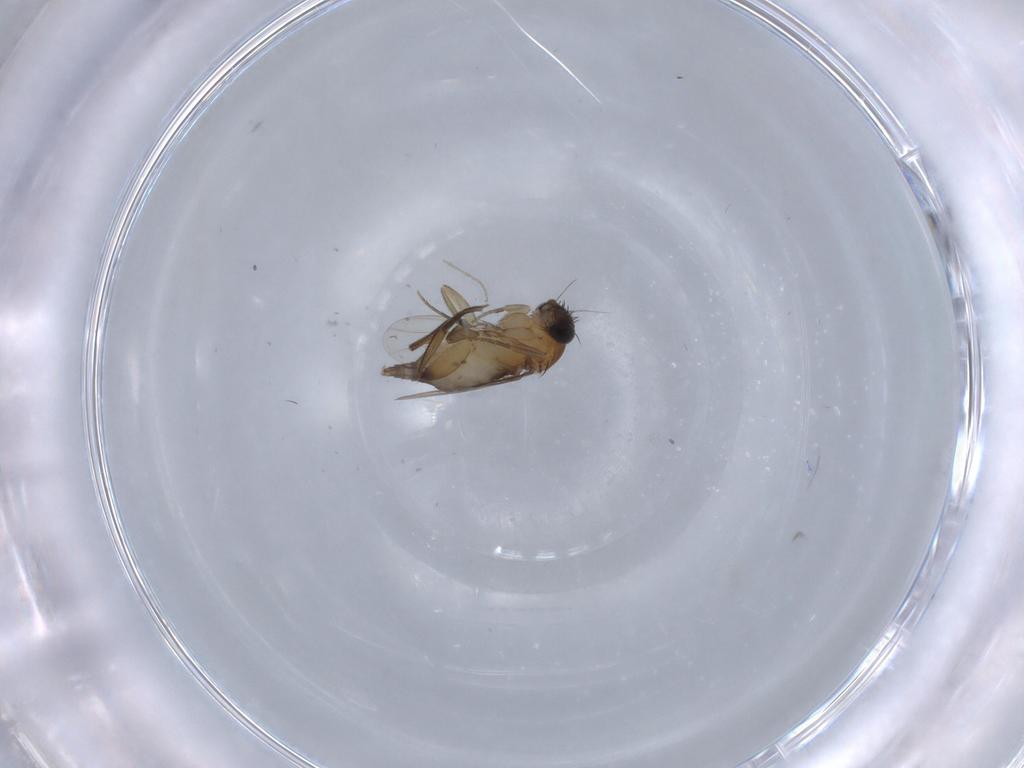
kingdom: Animalia
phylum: Arthropoda
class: Insecta
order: Diptera
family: Phoridae
